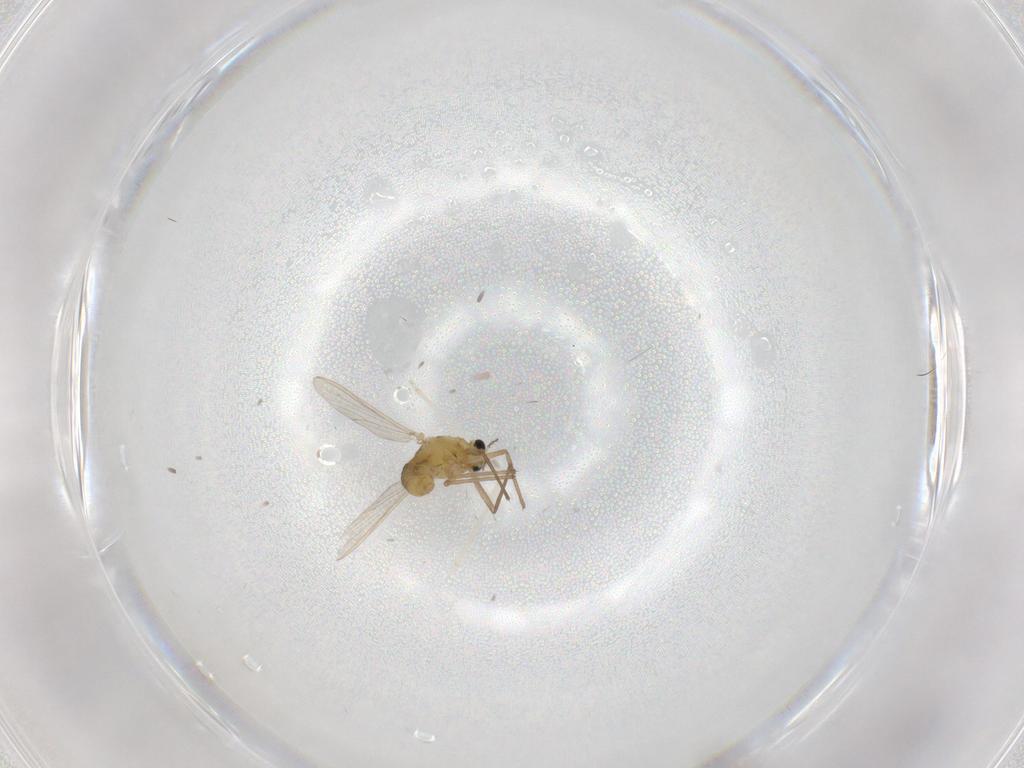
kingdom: Animalia
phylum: Arthropoda
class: Insecta
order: Diptera
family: Chironomidae
